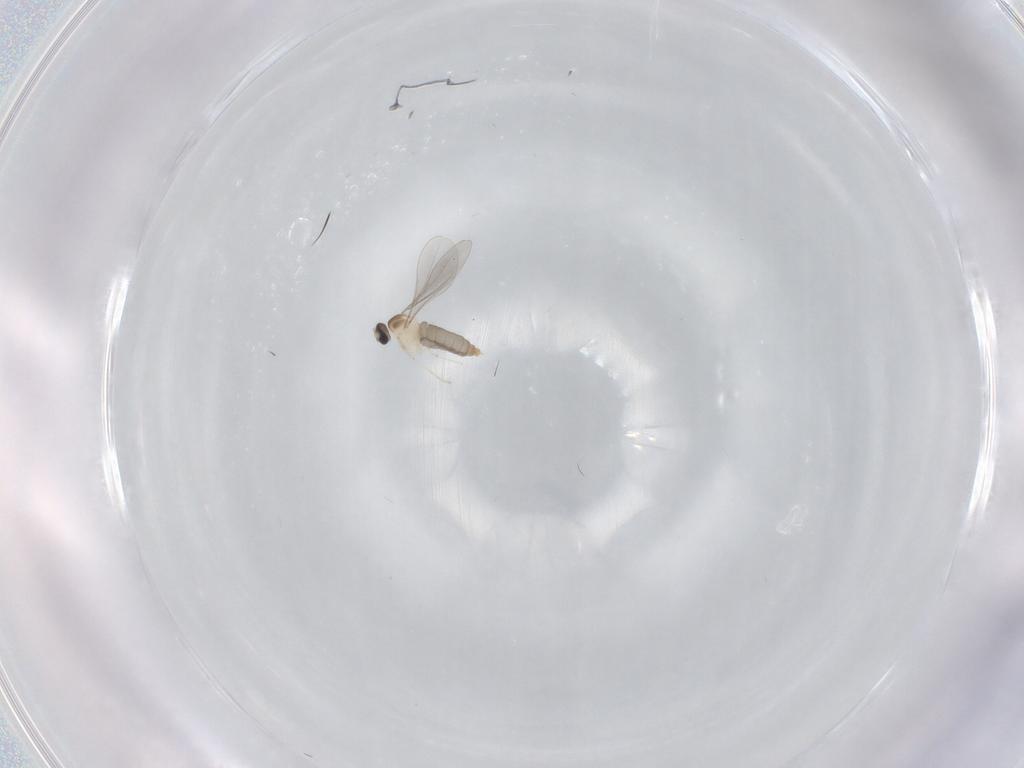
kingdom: Animalia
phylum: Arthropoda
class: Insecta
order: Diptera
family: Cecidomyiidae
